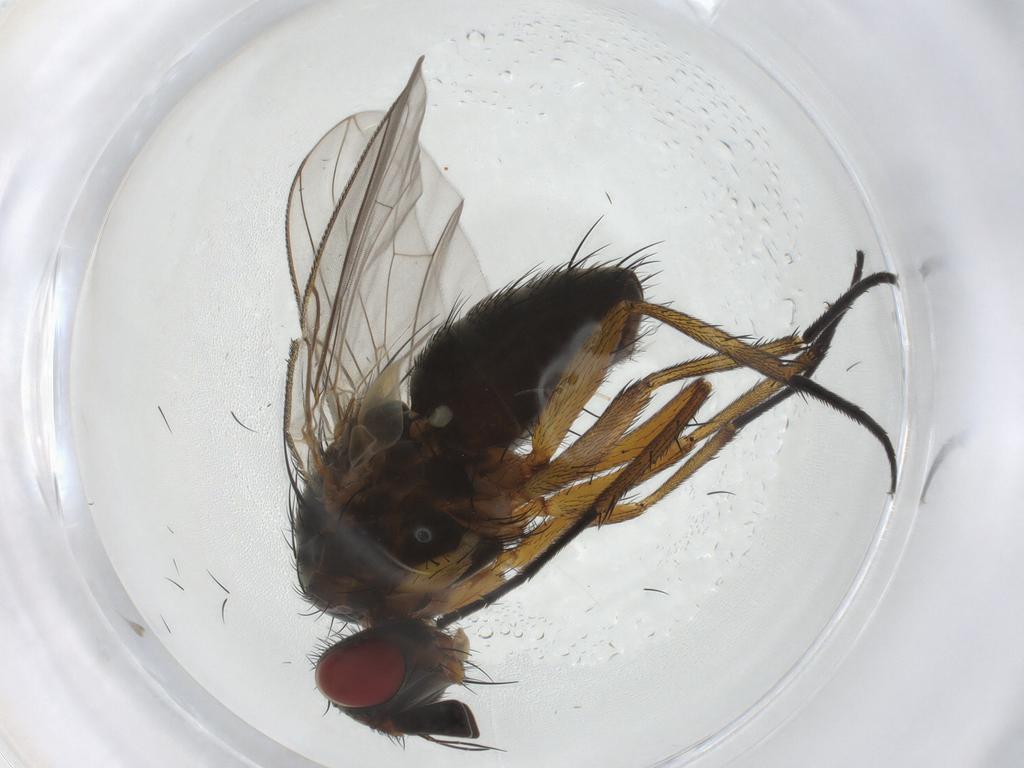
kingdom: Animalia
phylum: Arthropoda
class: Insecta
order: Diptera
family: Anthomyiidae
